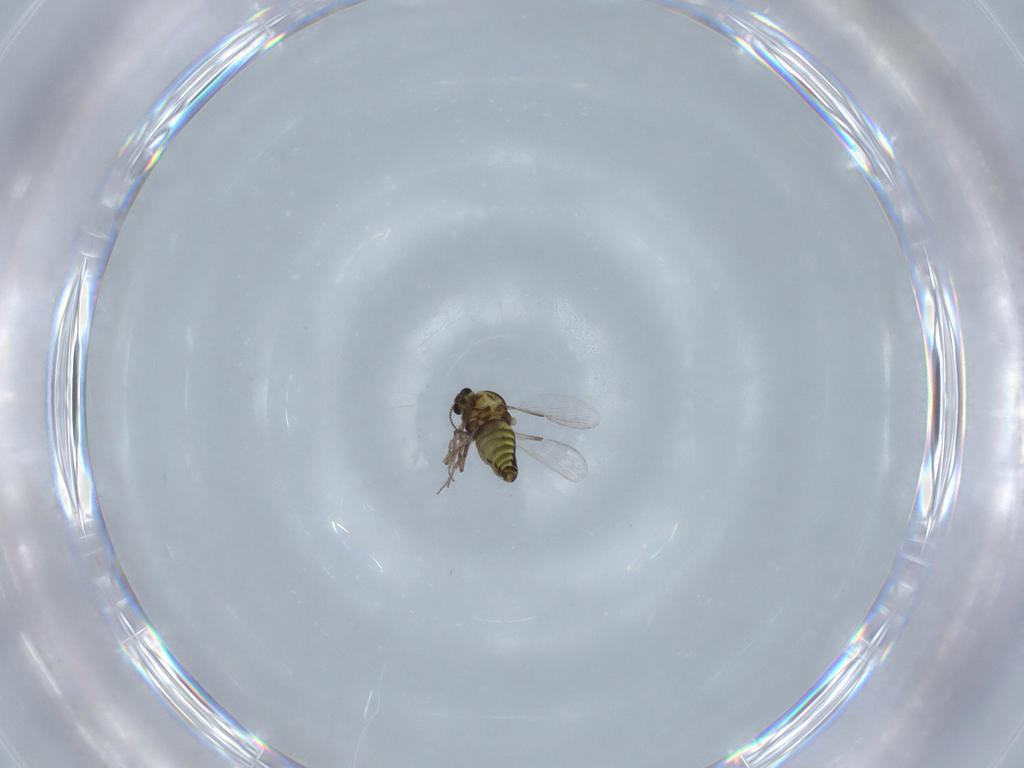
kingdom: Animalia
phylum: Arthropoda
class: Insecta
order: Diptera
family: Ceratopogonidae
